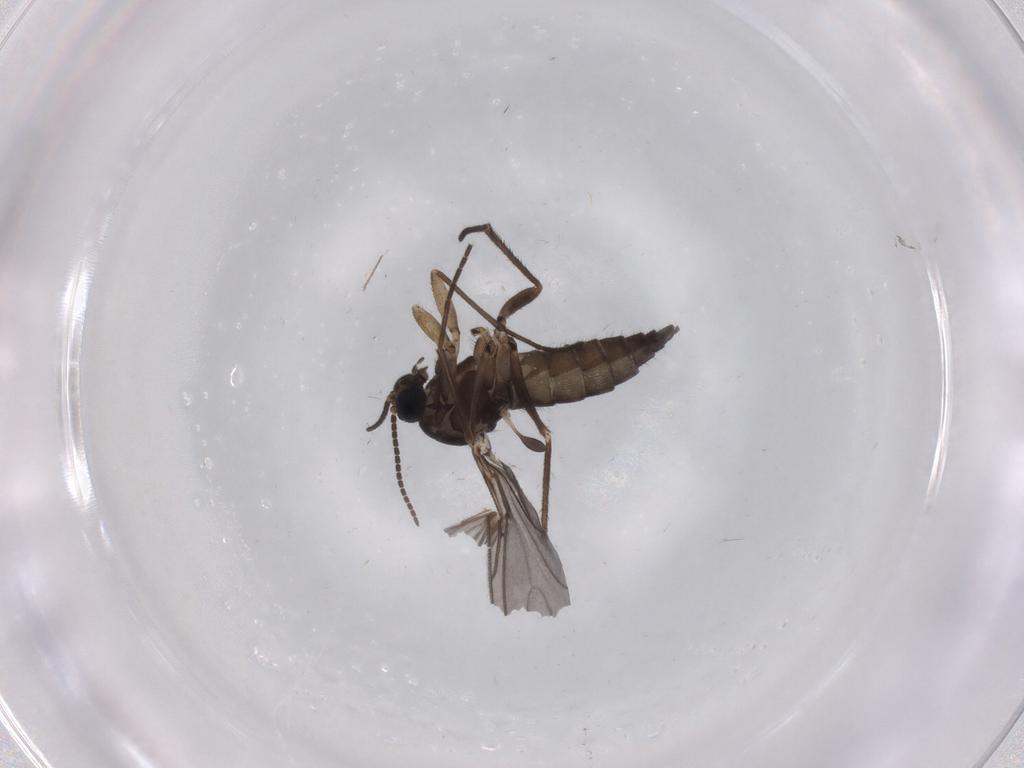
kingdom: Animalia
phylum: Arthropoda
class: Insecta
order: Diptera
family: Sciaridae
